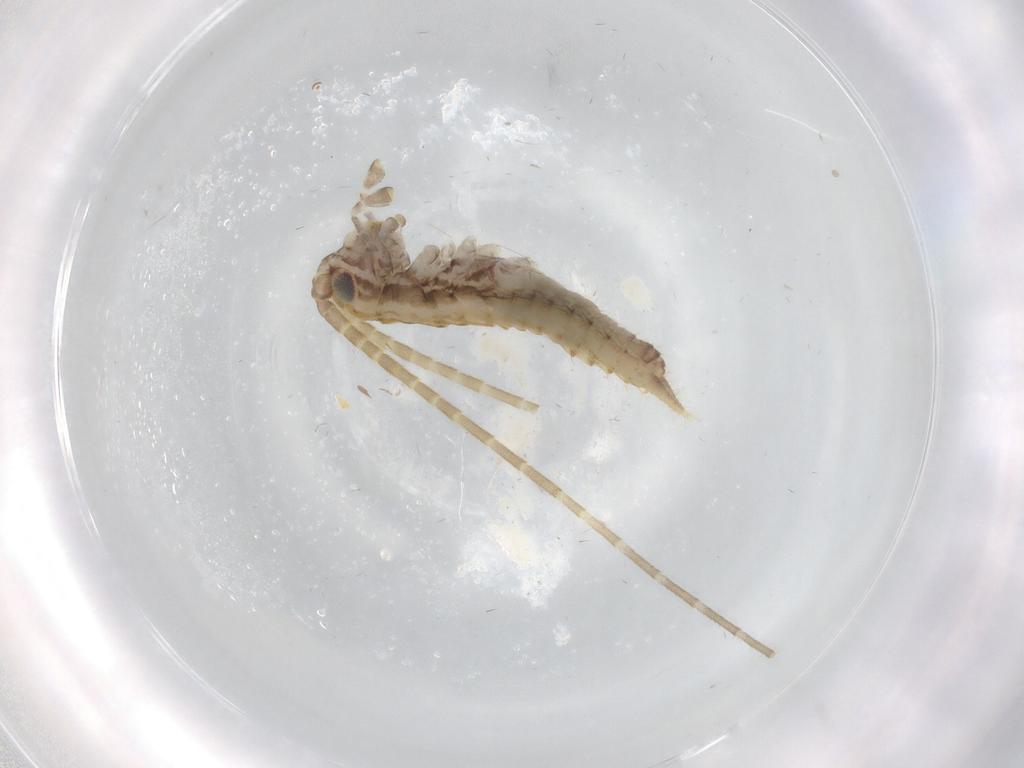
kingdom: Animalia
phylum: Arthropoda
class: Insecta
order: Orthoptera
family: Gryllidae
